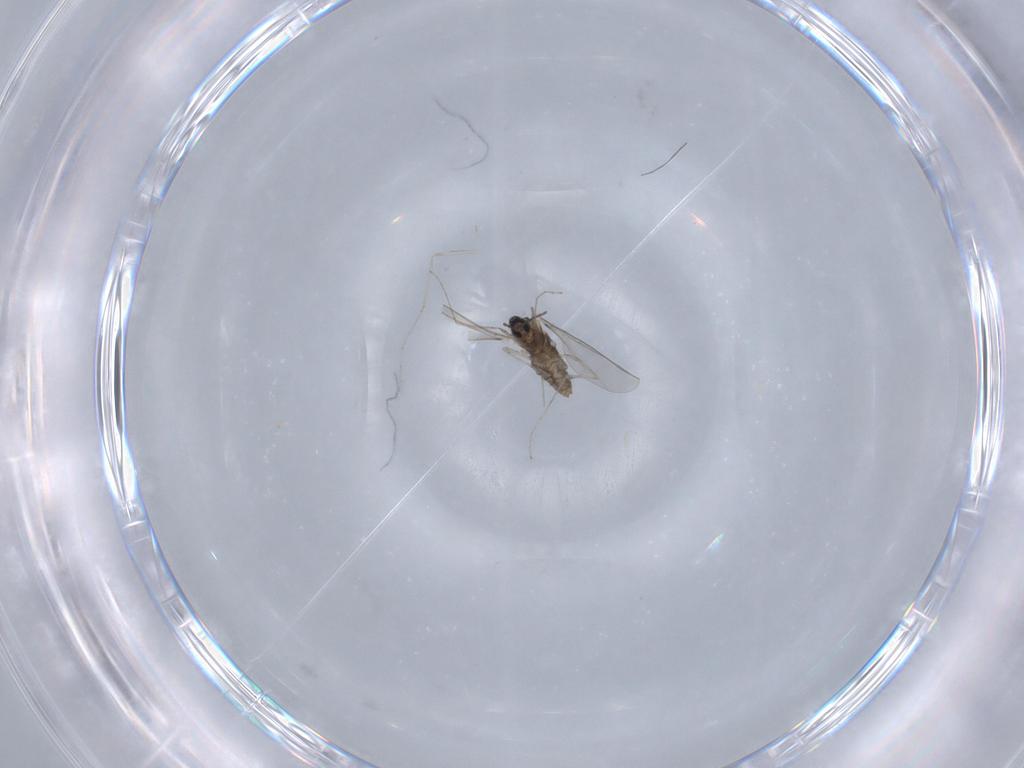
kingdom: Animalia
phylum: Arthropoda
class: Insecta
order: Diptera
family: Cecidomyiidae
